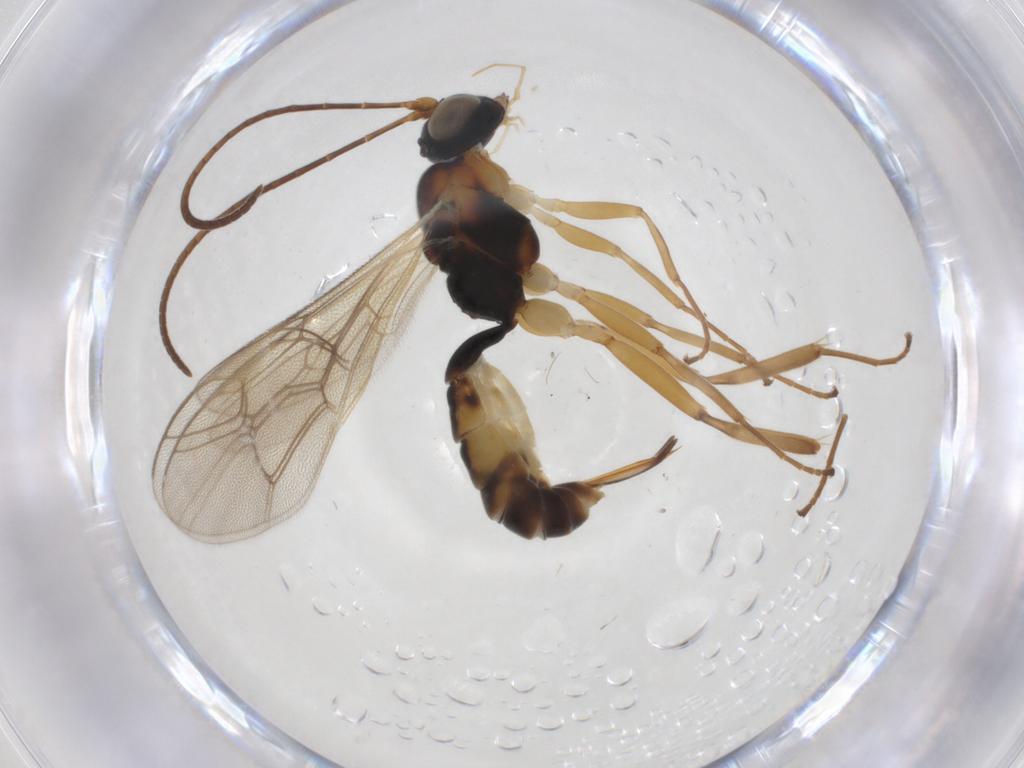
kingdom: Animalia
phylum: Arthropoda
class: Insecta
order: Hymenoptera
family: Ichneumonidae
